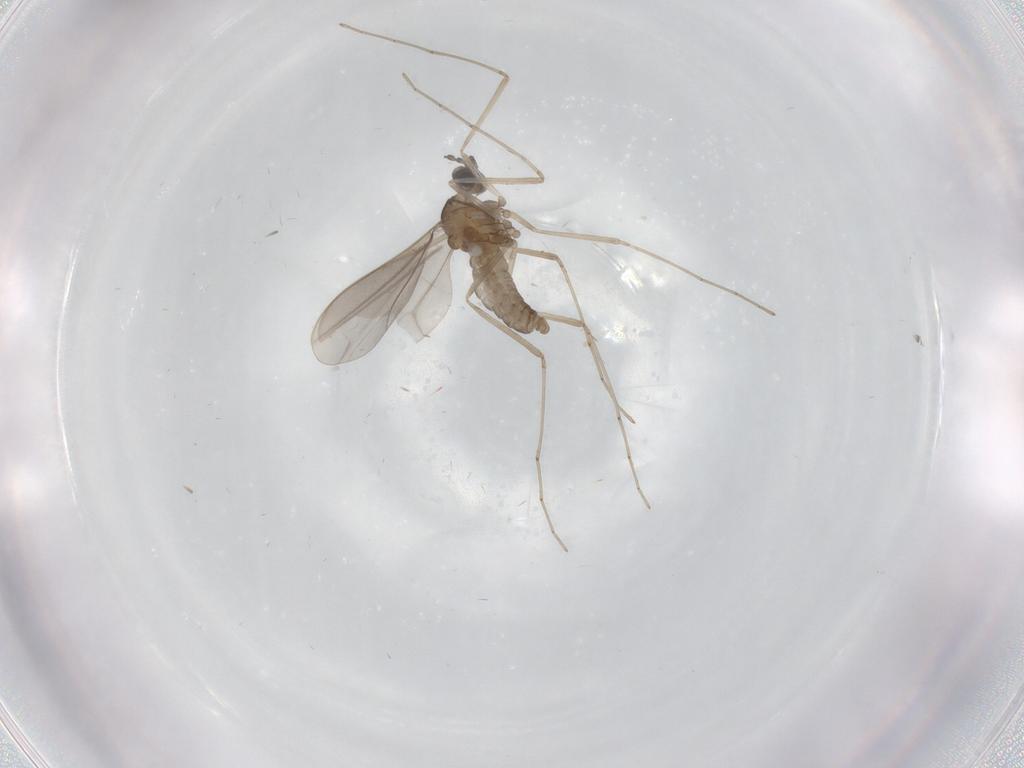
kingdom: Animalia
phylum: Arthropoda
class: Insecta
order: Diptera
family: Cecidomyiidae
